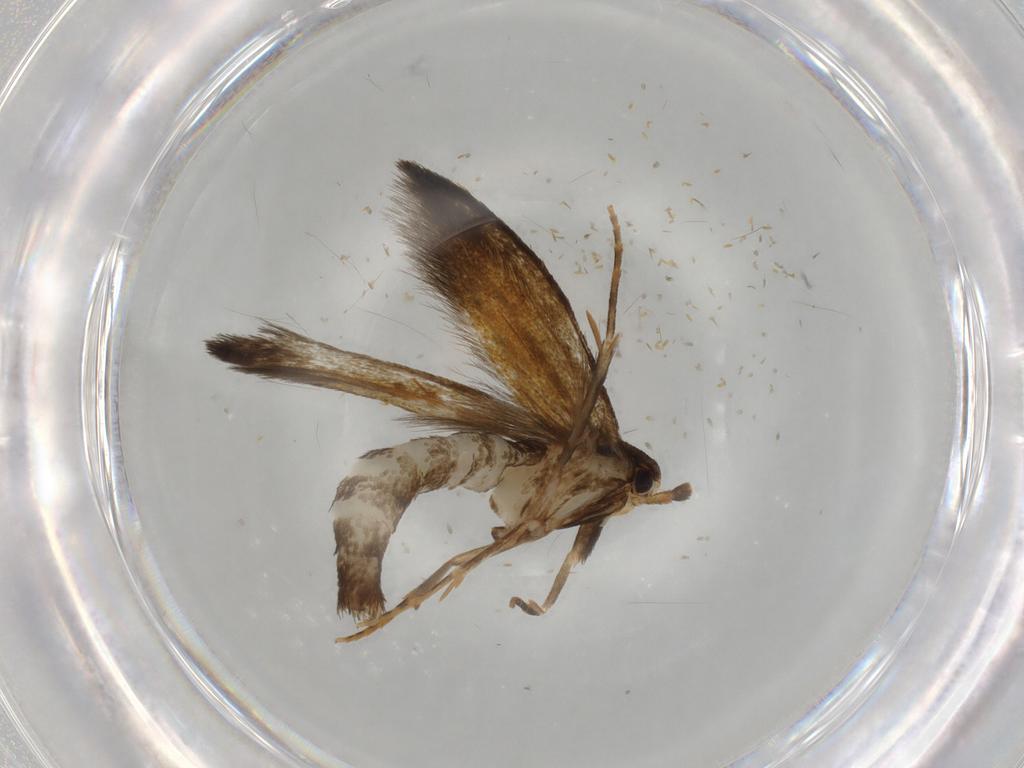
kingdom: Animalia
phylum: Arthropoda
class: Insecta
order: Lepidoptera
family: Tineidae
